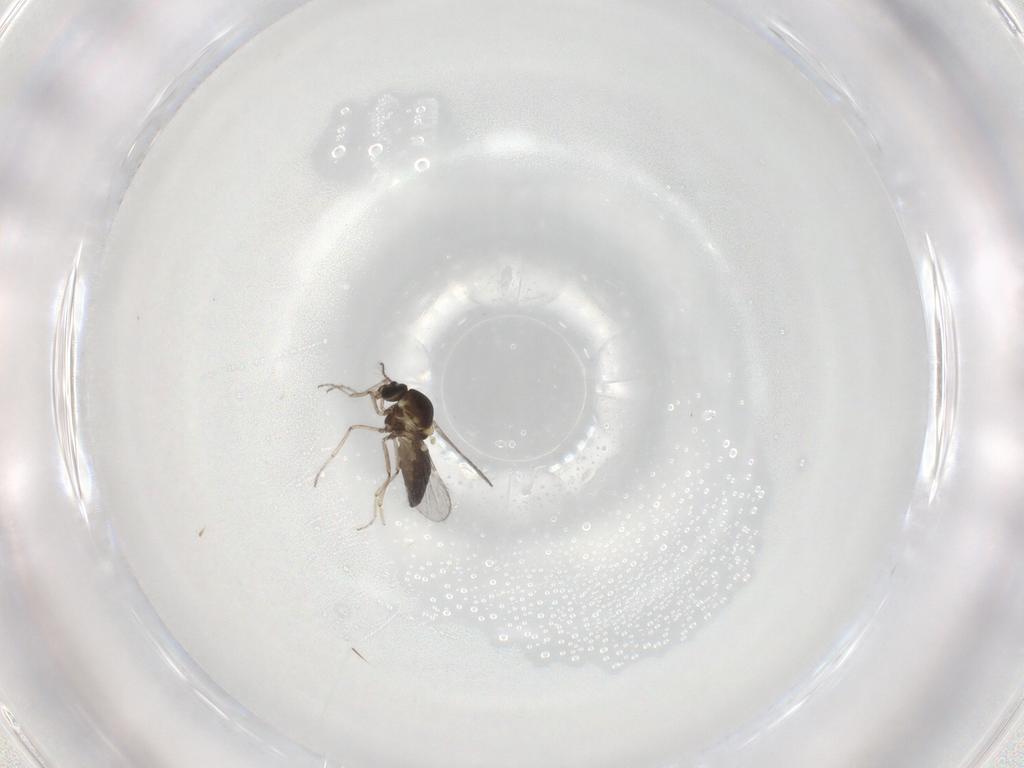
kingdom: Animalia
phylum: Arthropoda
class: Insecta
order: Diptera
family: Ceratopogonidae
